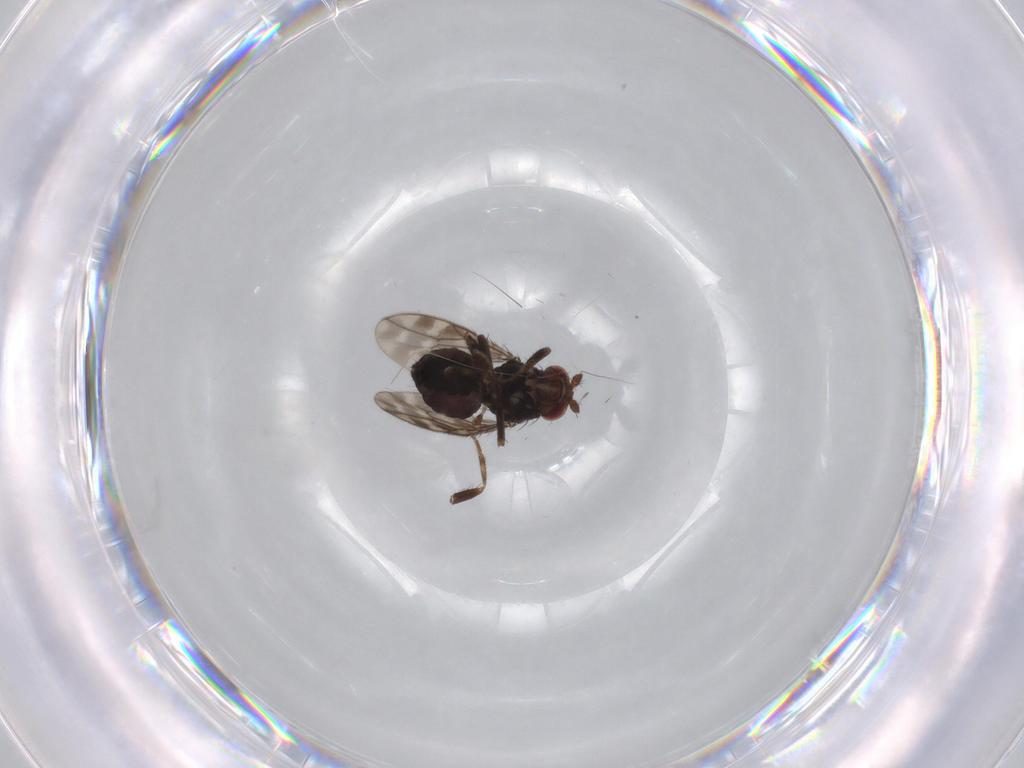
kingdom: Animalia
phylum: Arthropoda
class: Insecta
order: Diptera
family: Sphaeroceridae
